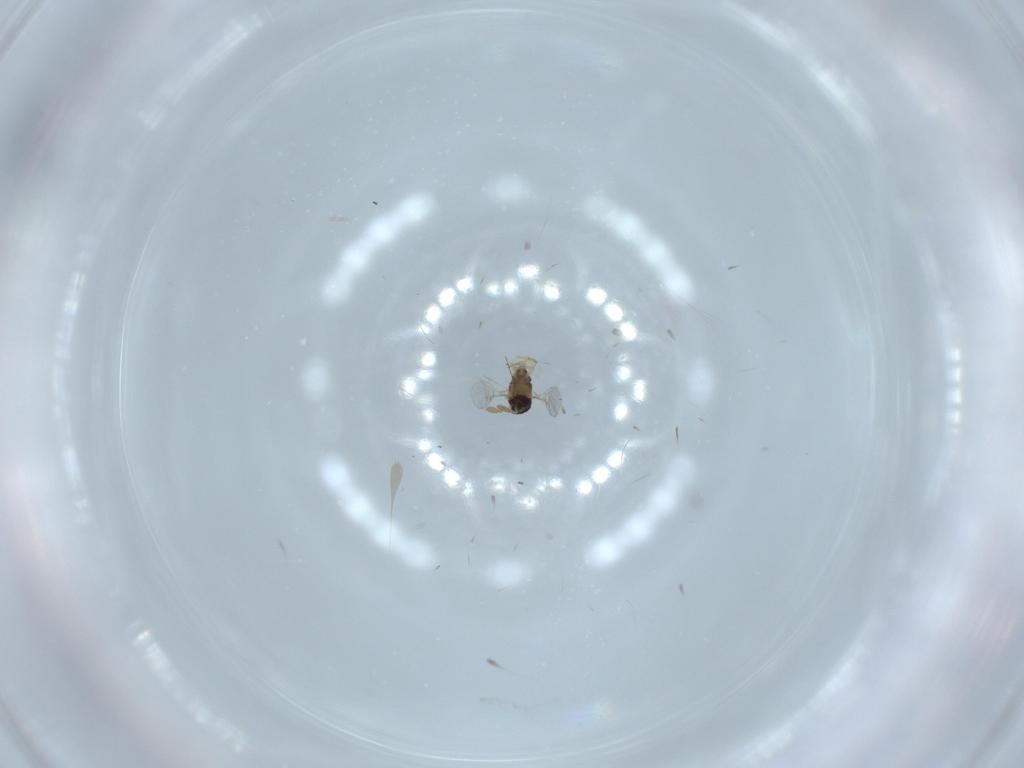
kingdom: Animalia
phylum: Arthropoda
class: Insecta
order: Hymenoptera
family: Encyrtidae
